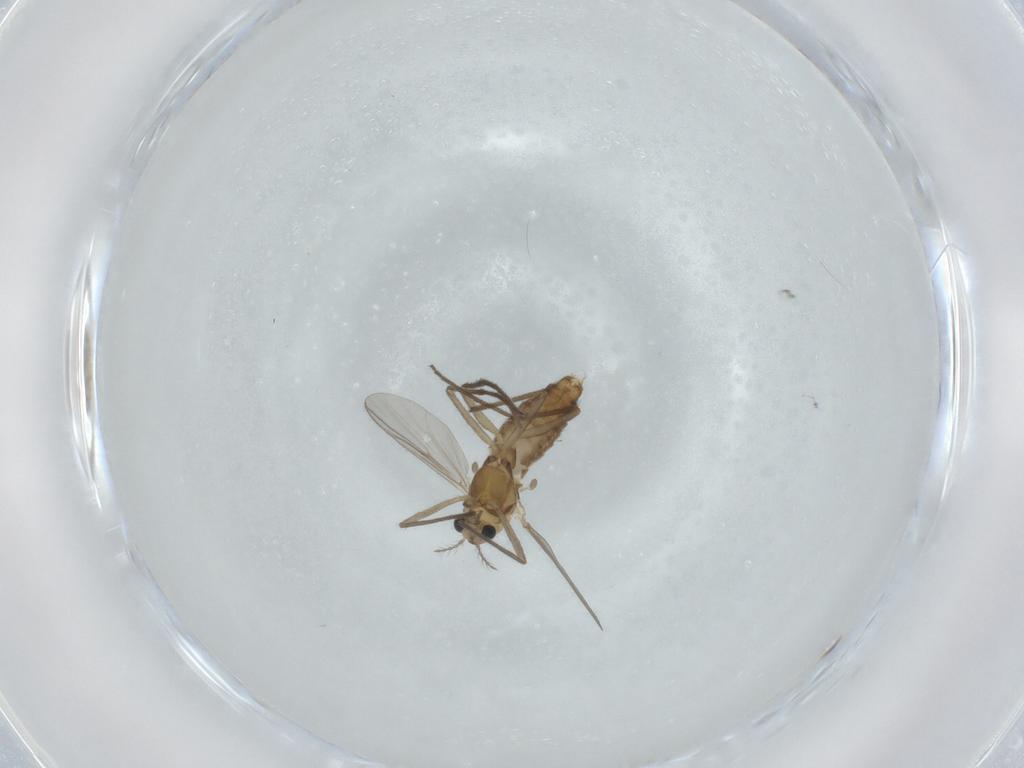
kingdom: Animalia
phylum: Arthropoda
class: Insecta
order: Diptera
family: Chironomidae
